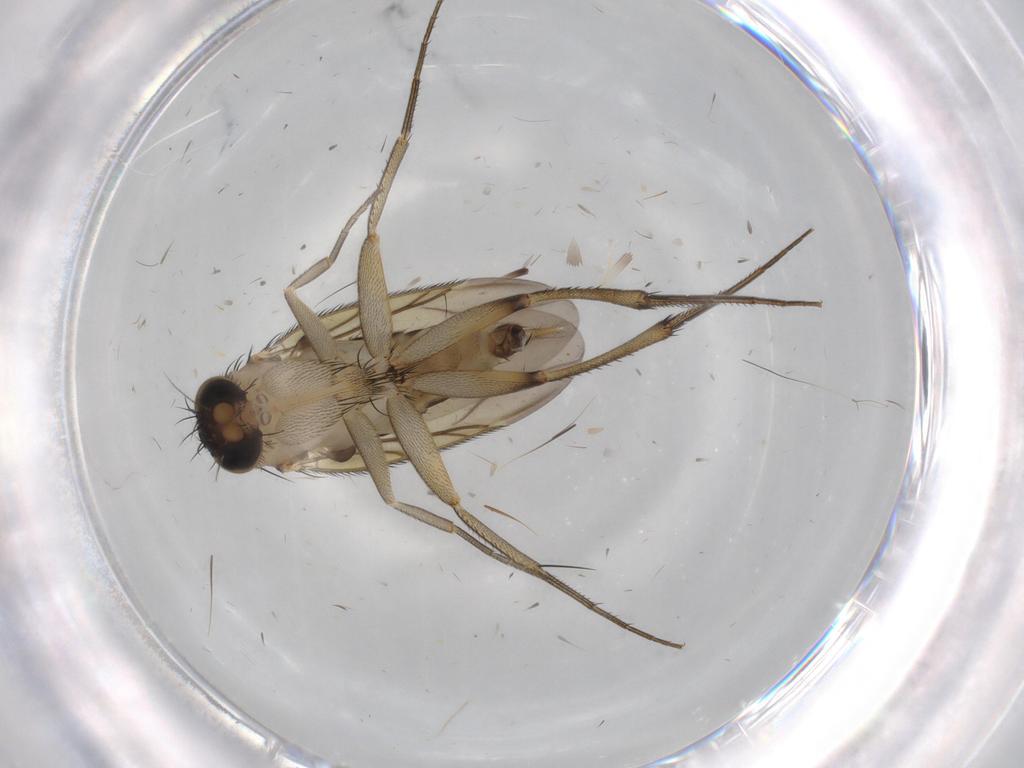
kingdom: Animalia
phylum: Arthropoda
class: Insecta
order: Diptera
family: Phoridae
